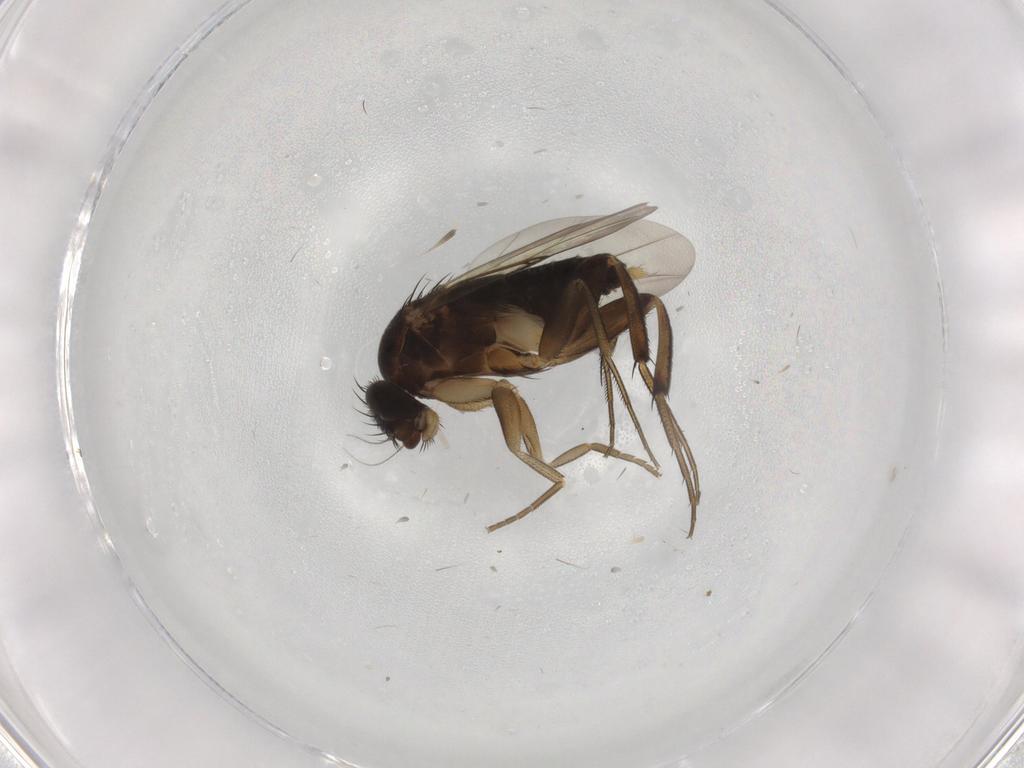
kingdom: Animalia
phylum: Arthropoda
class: Insecta
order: Diptera
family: Phoridae
